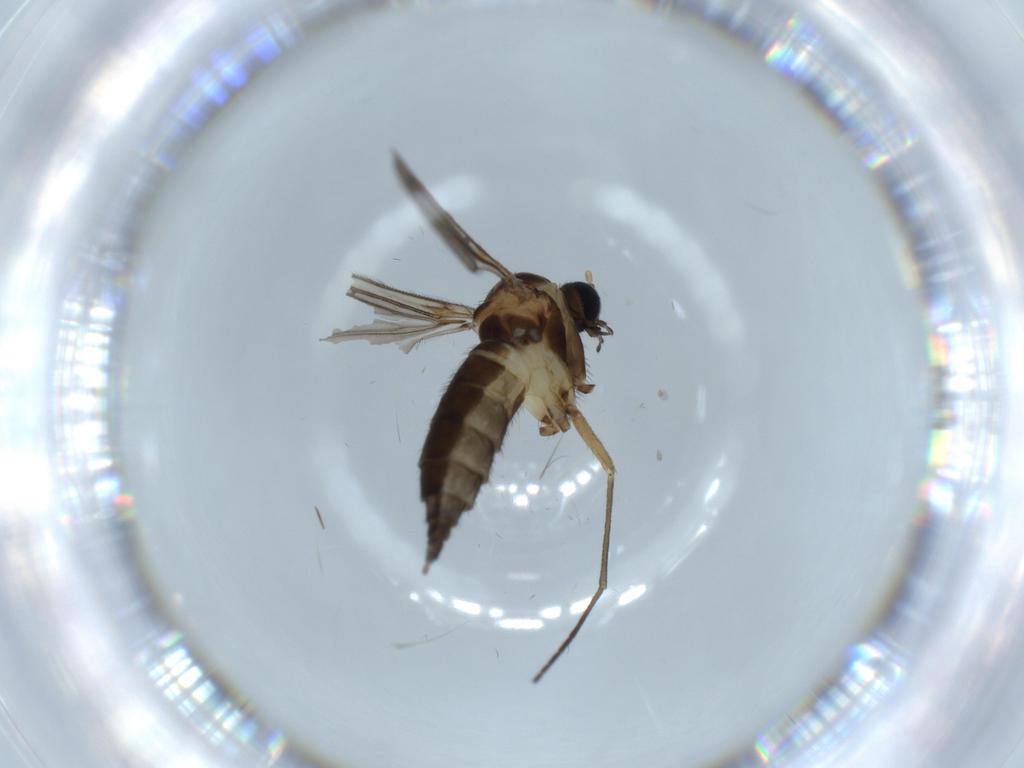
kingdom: Animalia
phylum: Arthropoda
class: Insecta
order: Diptera
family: Sciaridae
